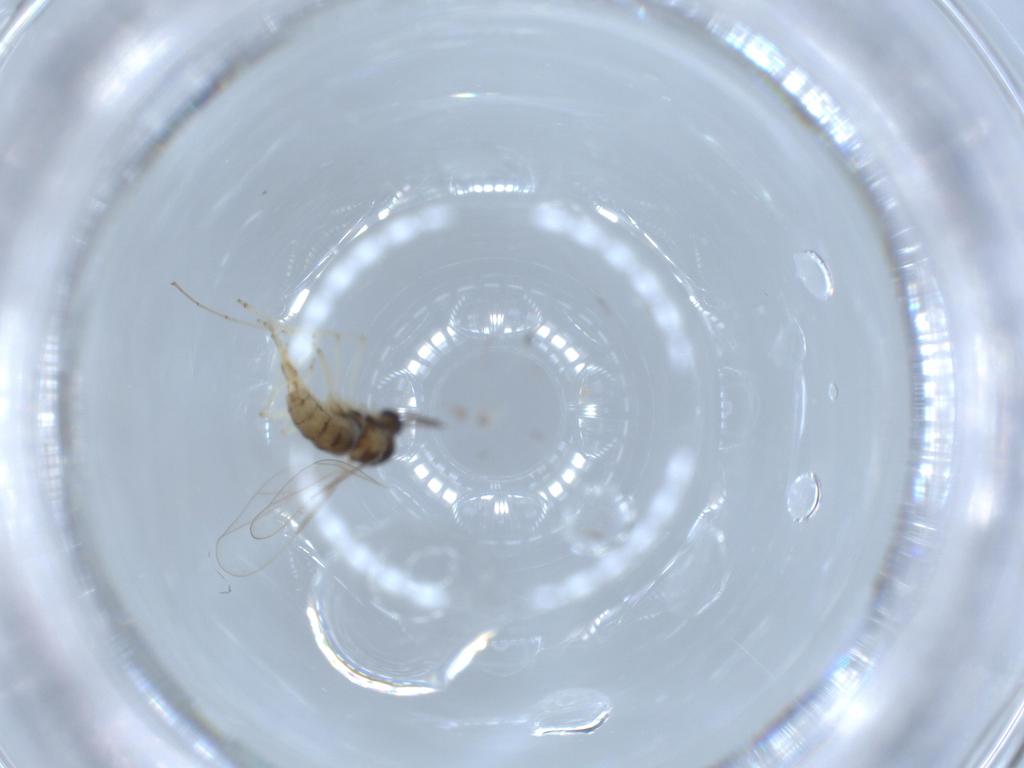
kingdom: Animalia
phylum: Arthropoda
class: Insecta
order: Diptera
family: Cecidomyiidae
